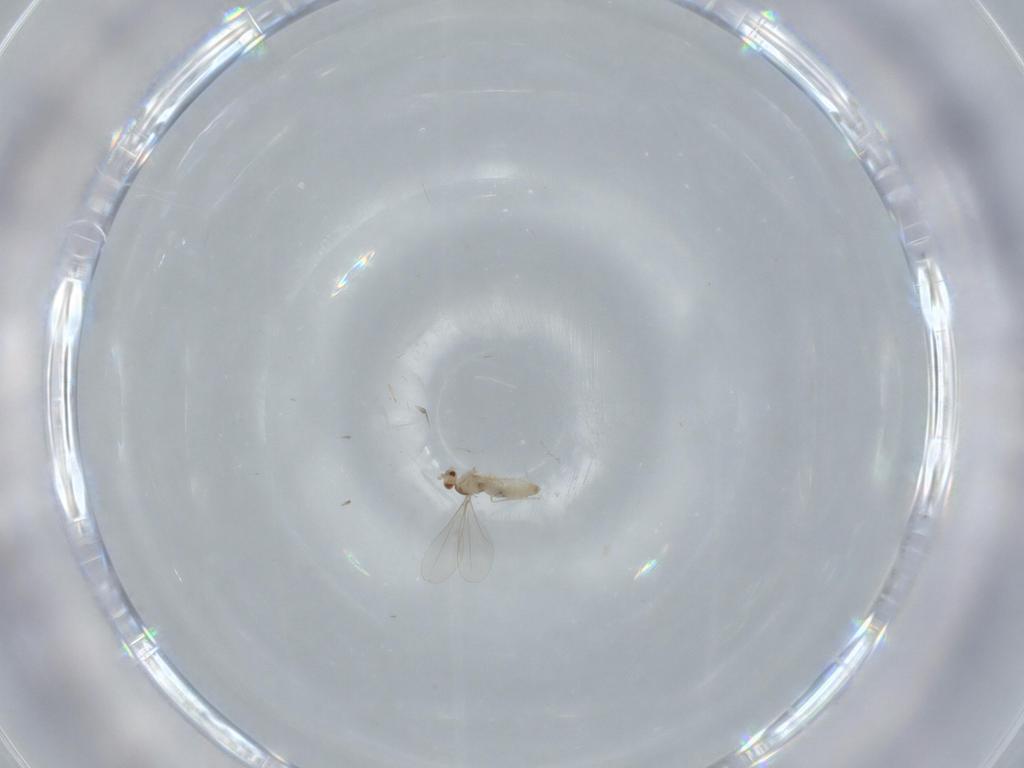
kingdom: Animalia
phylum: Arthropoda
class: Insecta
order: Diptera
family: Cecidomyiidae
